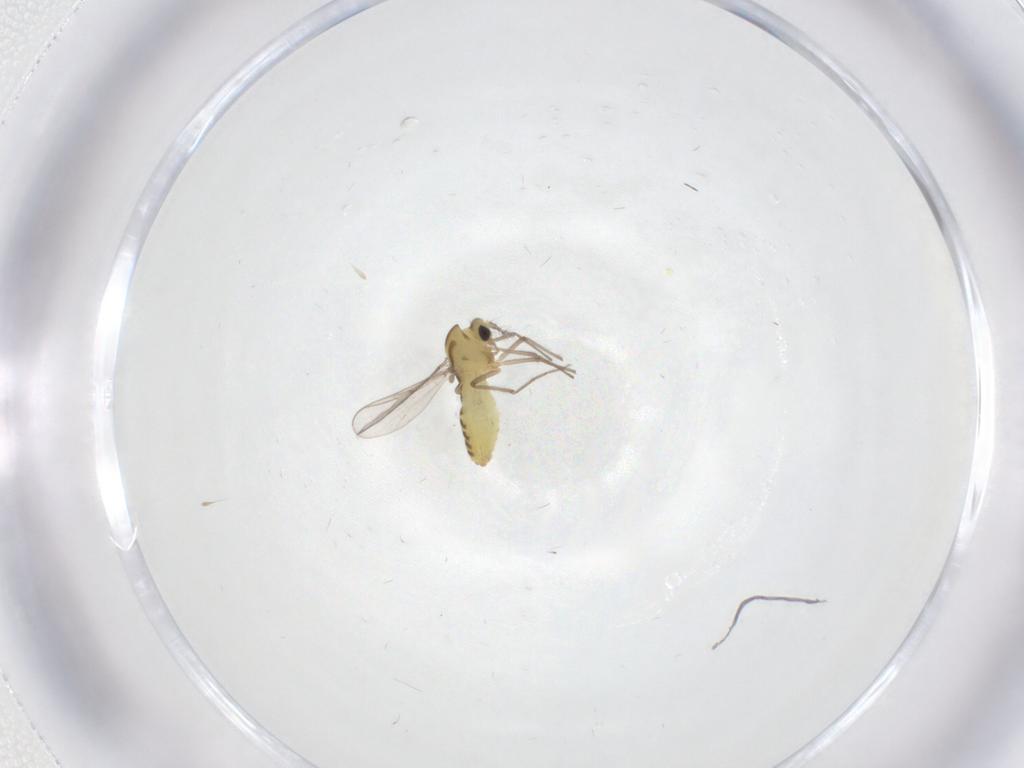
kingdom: Animalia
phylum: Arthropoda
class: Insecta
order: Diptera
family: Chironomidae
